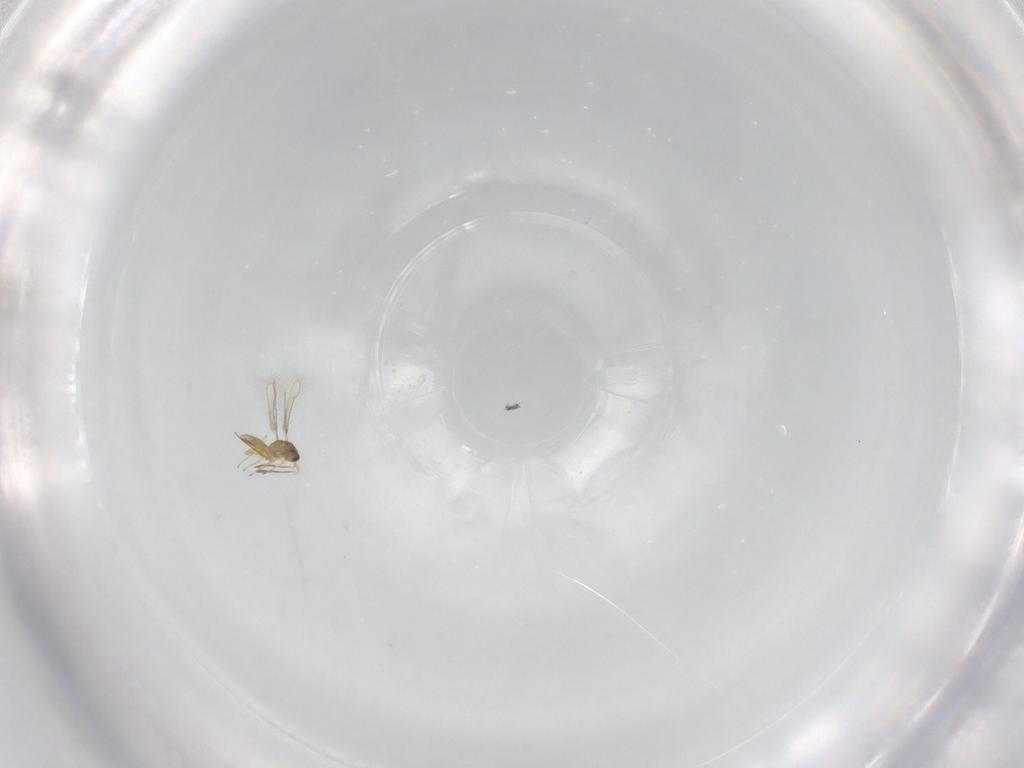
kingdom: Animalia
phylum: Arthropoda
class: Insecta
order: Hymenoptera
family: Mymaridae
